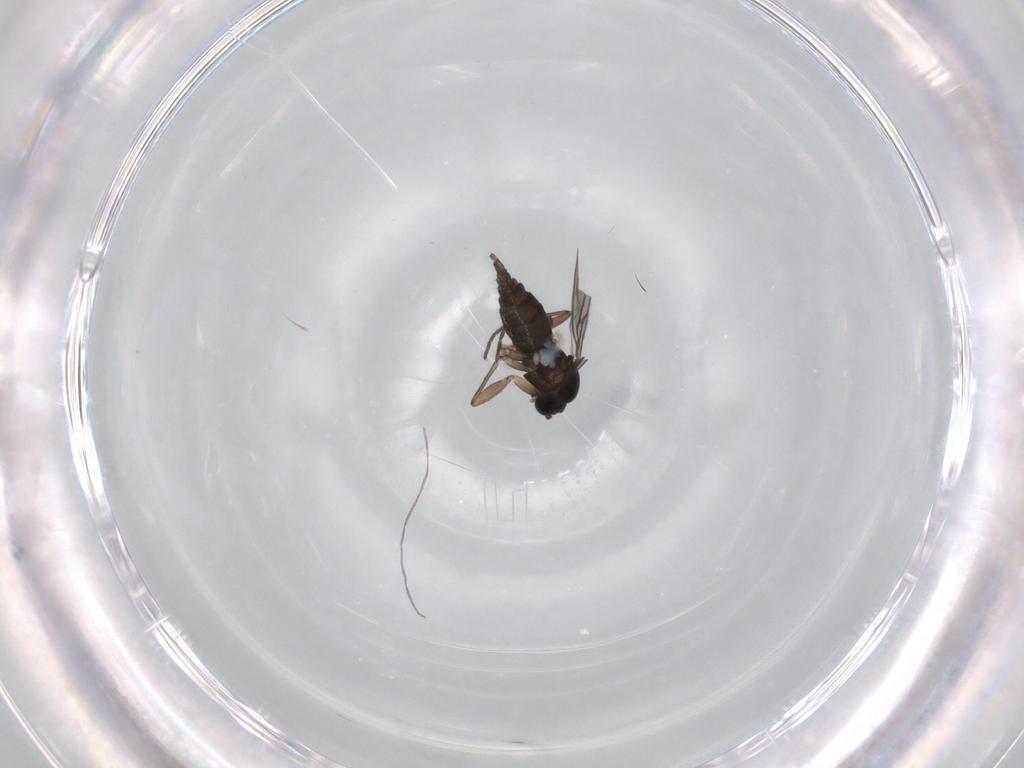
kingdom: Animalia
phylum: Arthropoda
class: Insecta
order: Diptera
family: Sciaridae
